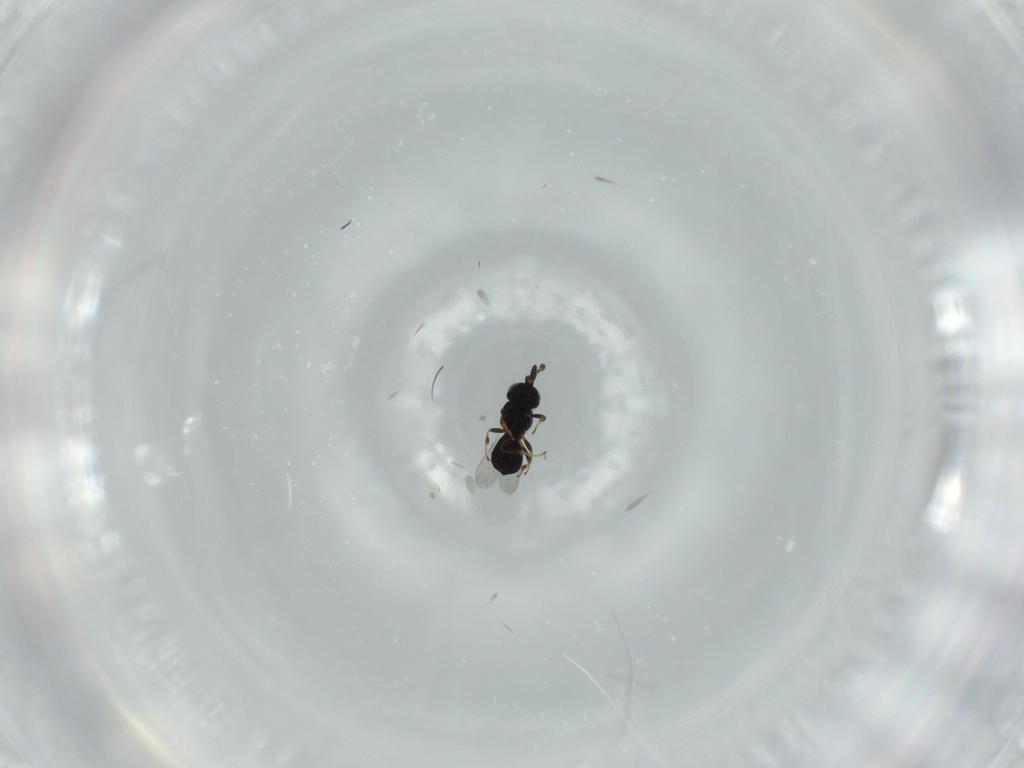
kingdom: Animalia
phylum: Arthropoda
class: Insecta
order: Hymenoptera
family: Scelionidae
